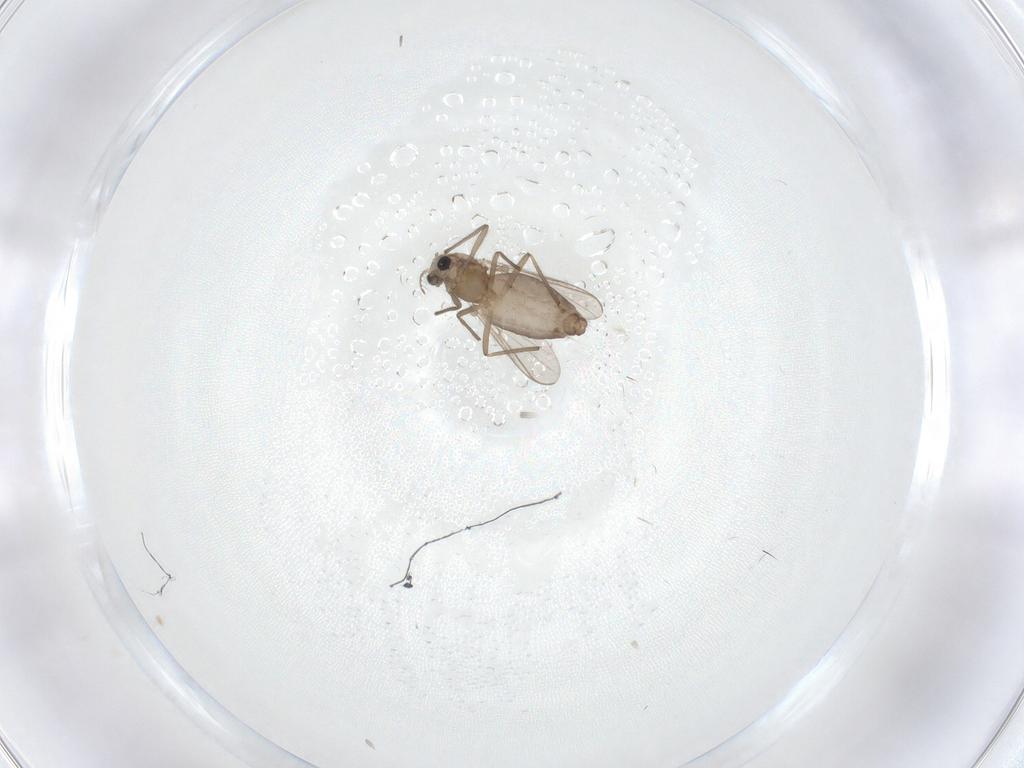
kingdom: Animalia
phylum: Arthropoda
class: Insecta
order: Diptera
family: Chironomidae
